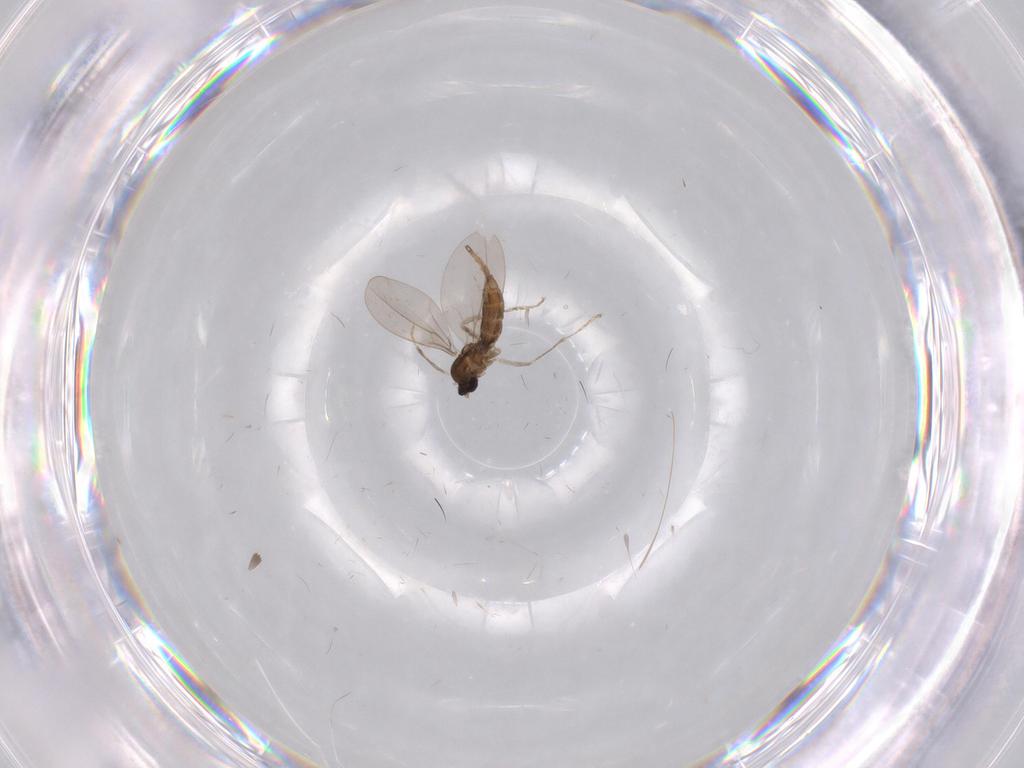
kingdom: Animalia
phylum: Arthropoda
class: Insecta
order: Diptera
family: Cecidomyiidae
